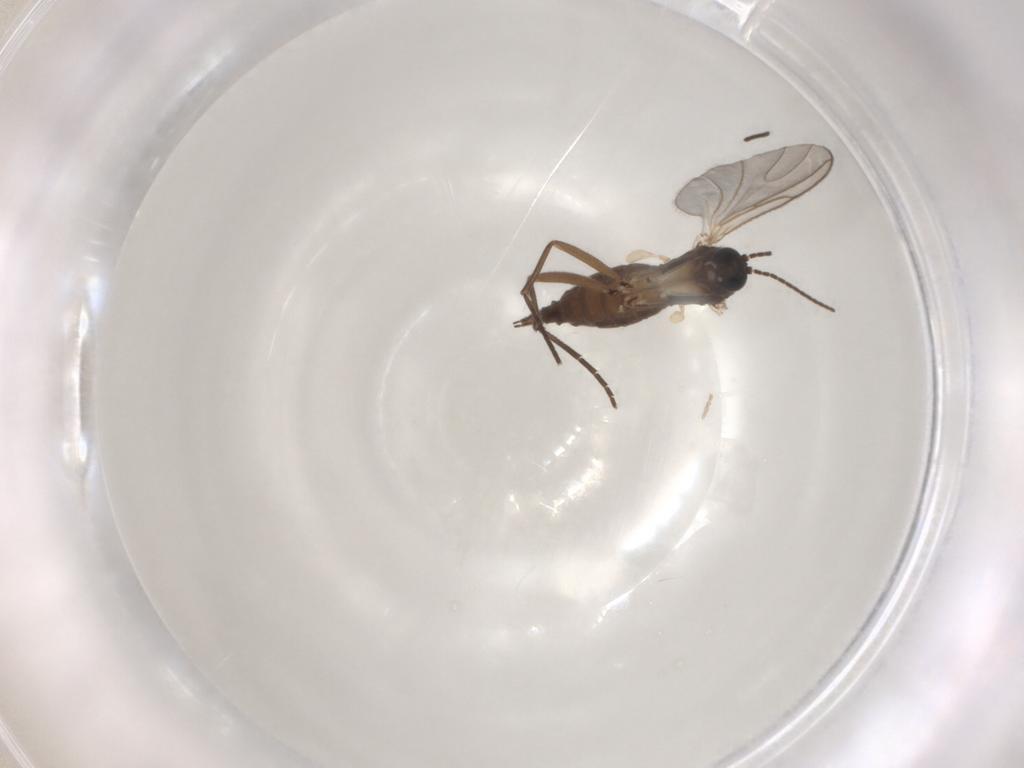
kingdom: Animalia
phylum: Arthropoda
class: Insecta
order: Diptera
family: Sciaridae
